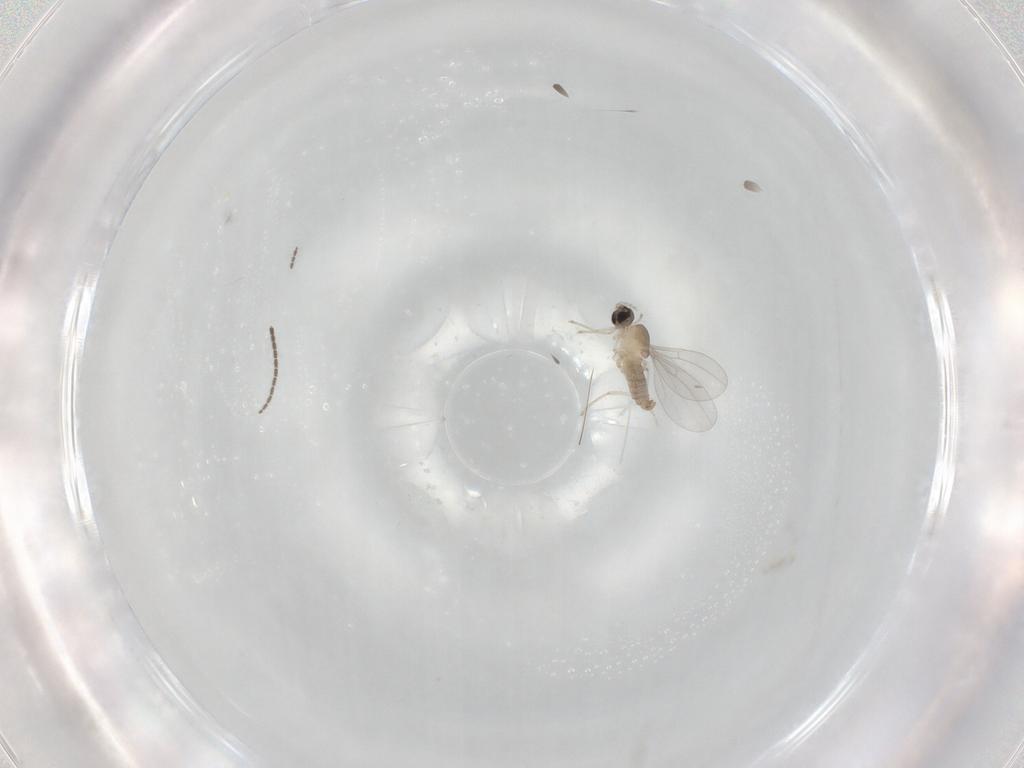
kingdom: Animalia
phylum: Arthropoda
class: Insecta
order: Diptera
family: Chironomidae
